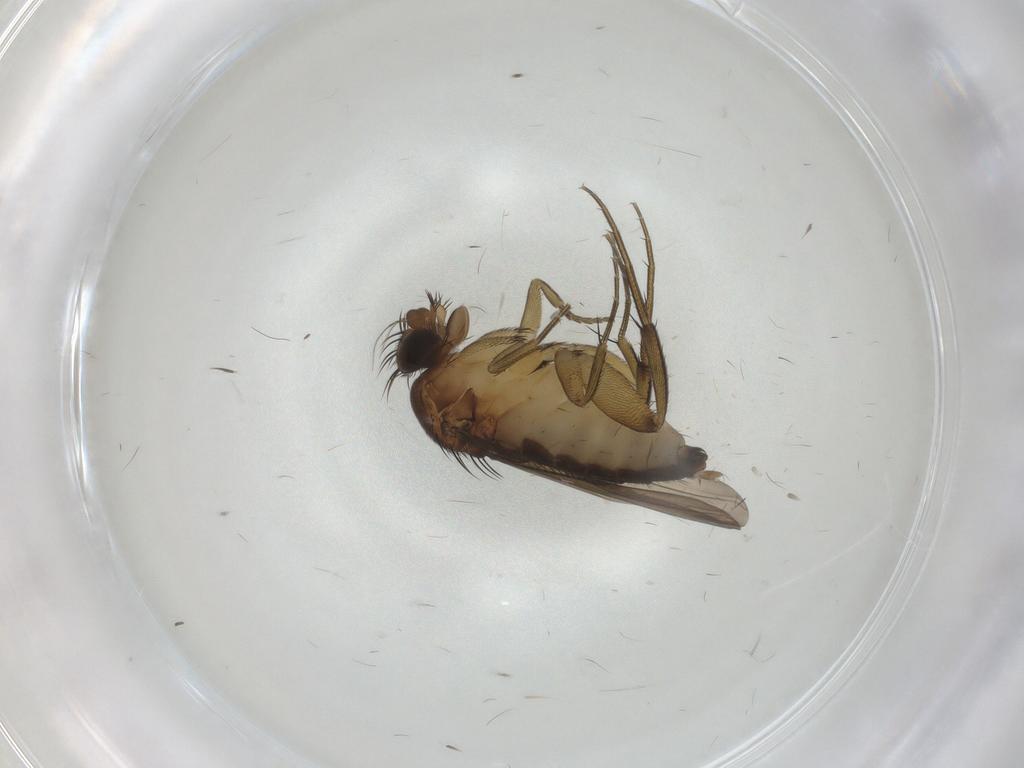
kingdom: Animalia
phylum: Arthropoda
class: Insecta
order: Diptera
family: Phoridae
